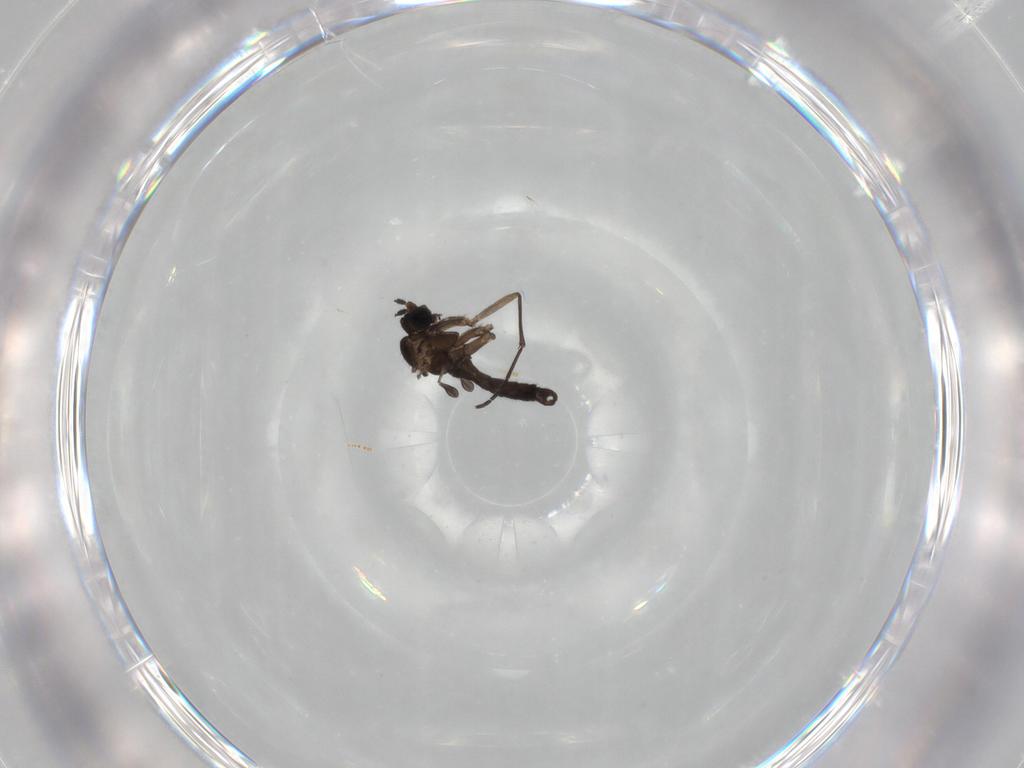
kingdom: Animalia
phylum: Arthropoda
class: Insecta
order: Diptera
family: Sciaridae
